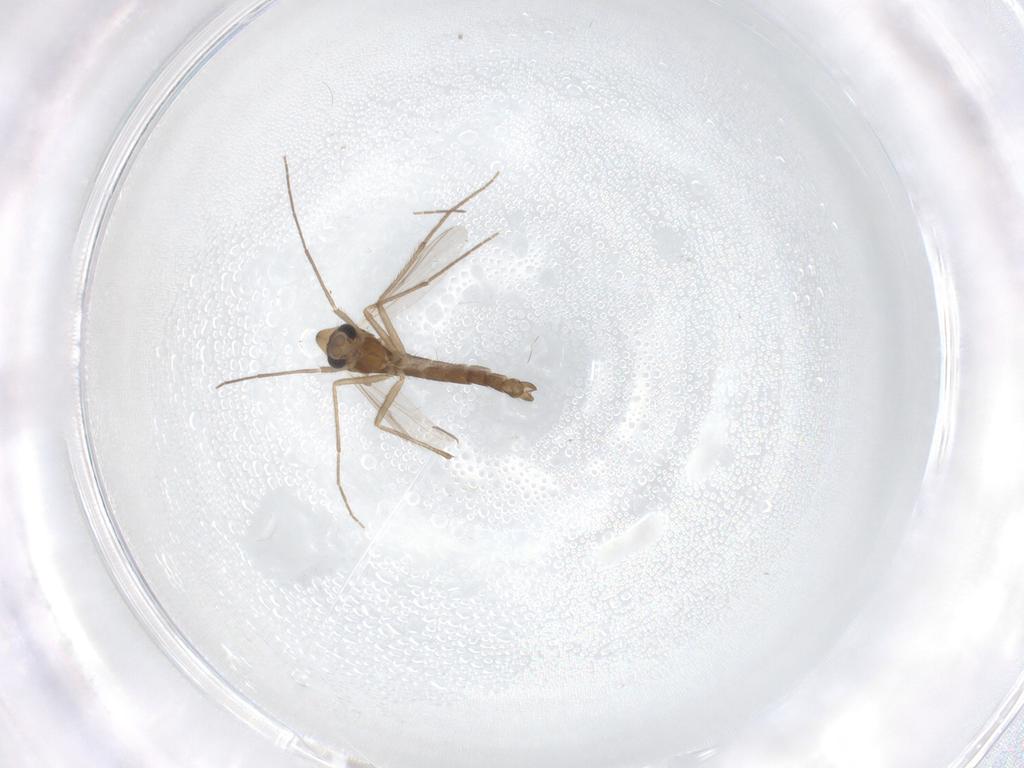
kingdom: Animalia
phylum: Arthropoda
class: Insecta
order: Diptera
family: Chironomidae
